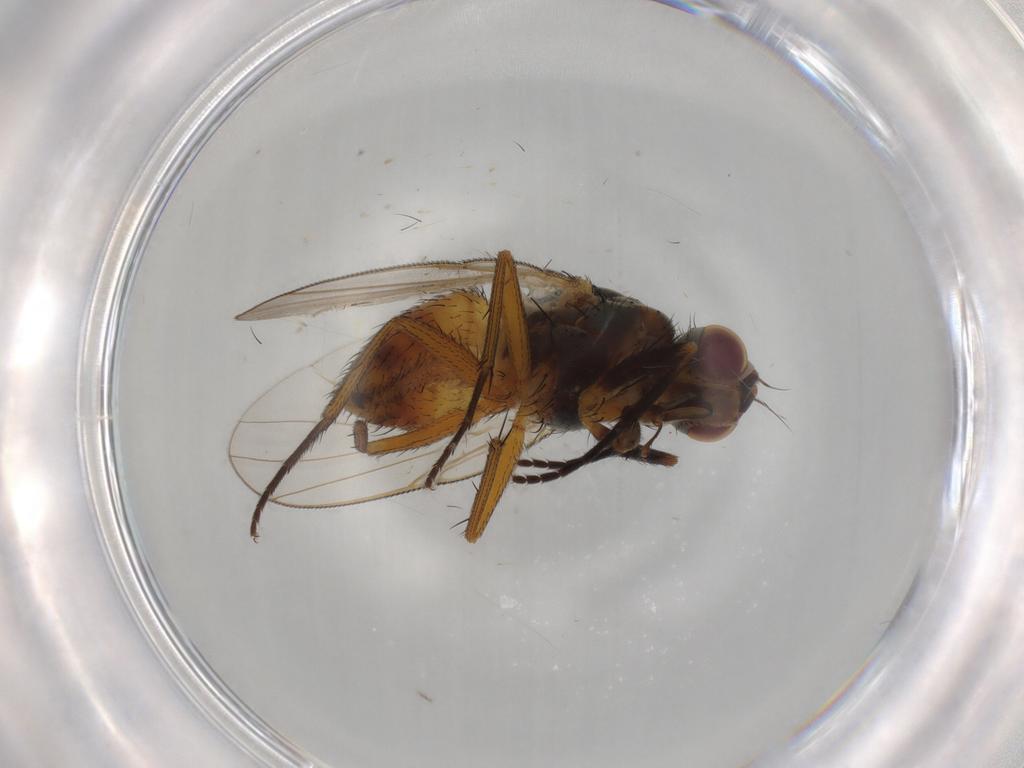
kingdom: Animalia
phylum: Arthropoda
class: Insecta
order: Diptera
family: Muscidae
